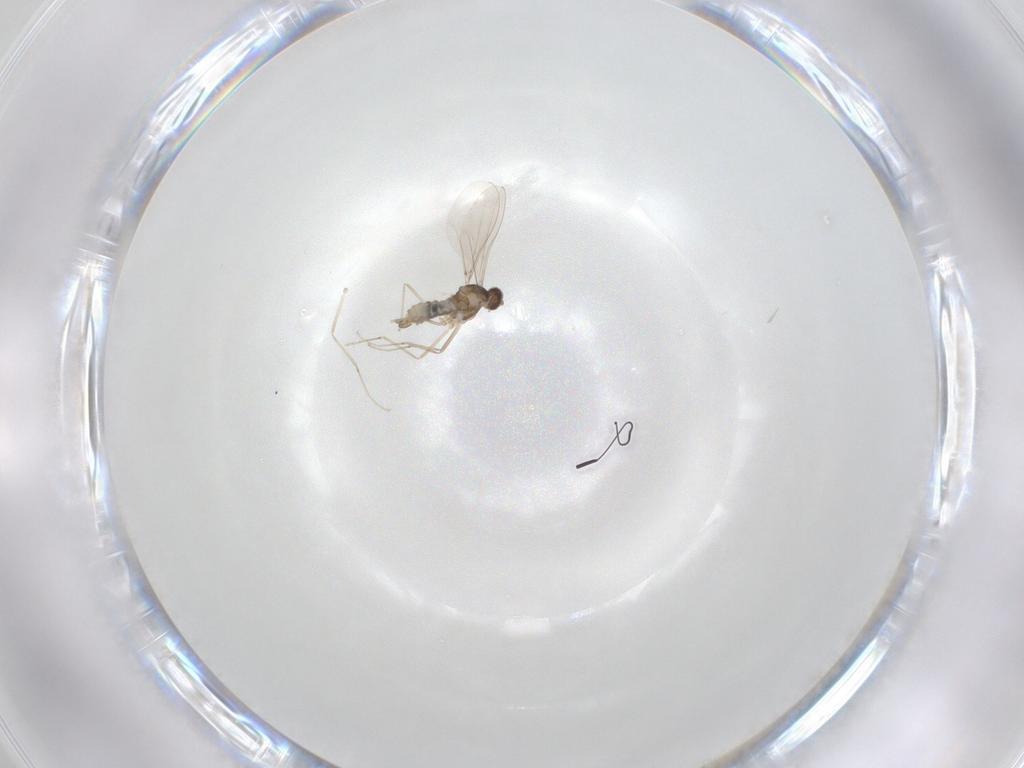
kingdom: Animalia
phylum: Arthropoda
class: Insecta
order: Diptera
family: Cecidomyiidae
